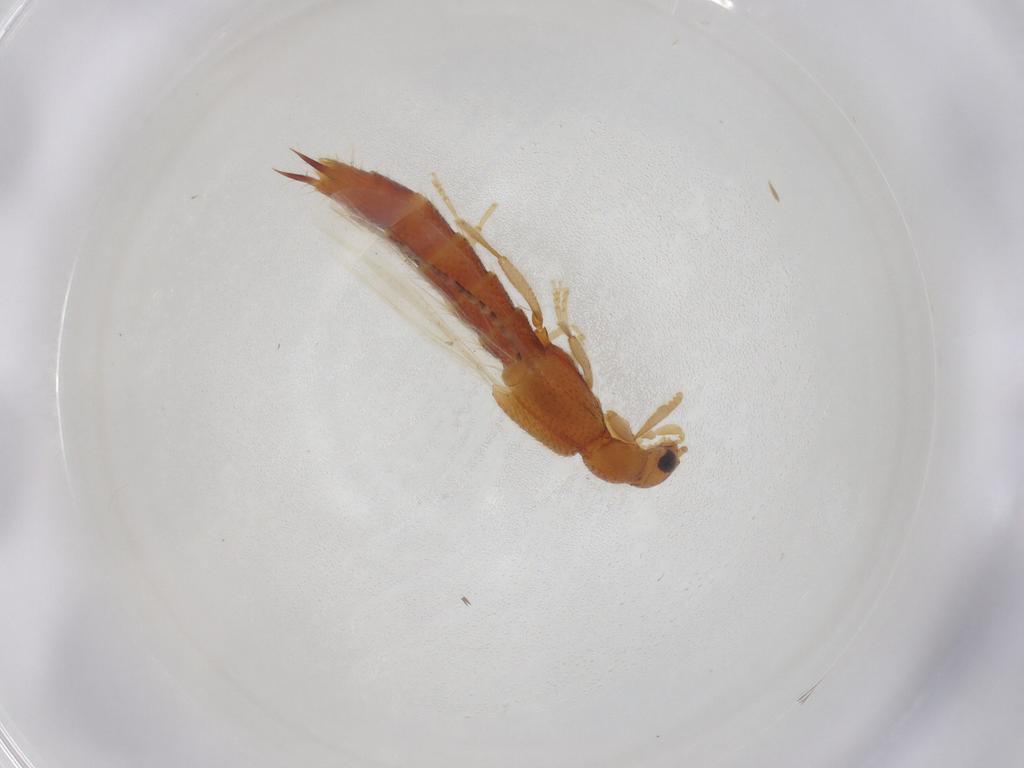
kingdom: Animalia
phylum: Arthropoda
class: Insecta
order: Coleoptera
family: Staphylinidae
